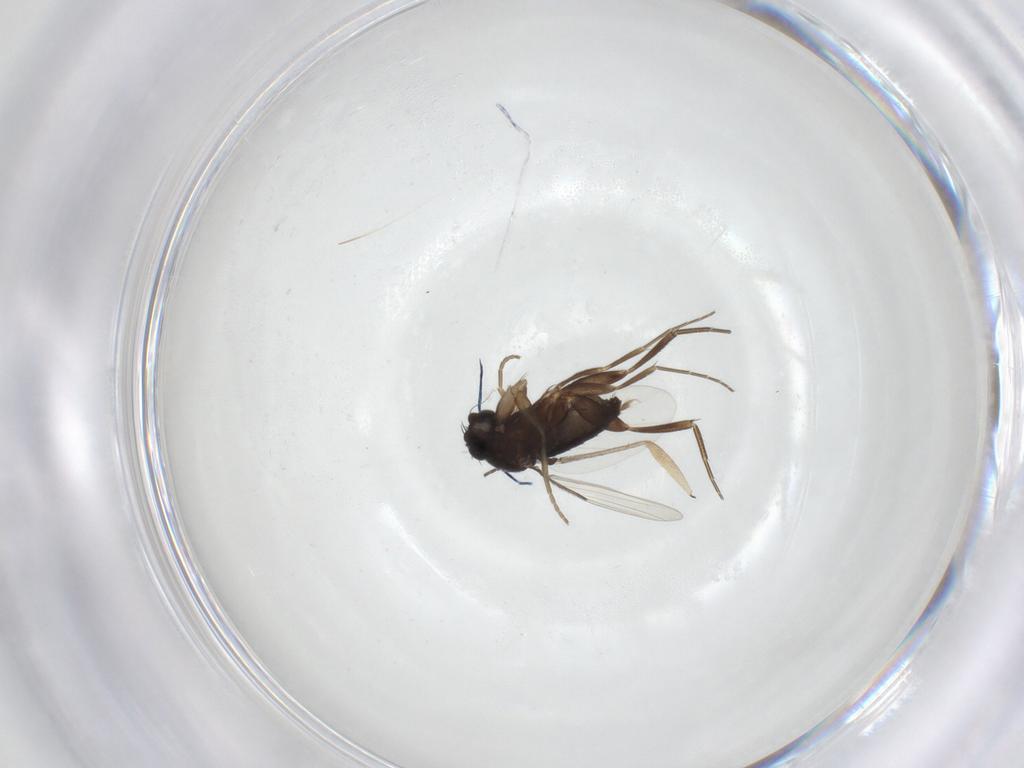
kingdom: Animalia
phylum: Arthropoda
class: Insecta
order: Diptera
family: Phoridae
